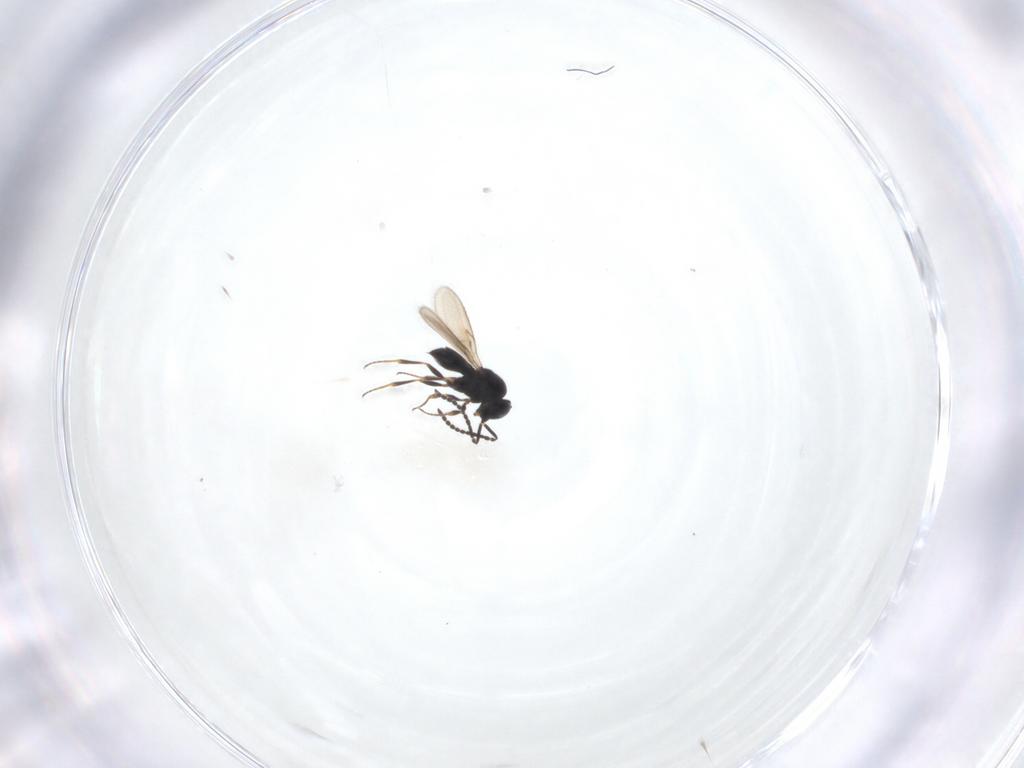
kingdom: Animalia
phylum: Arthropoda
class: Insecta
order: Hymenoptera
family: Scelionidae
